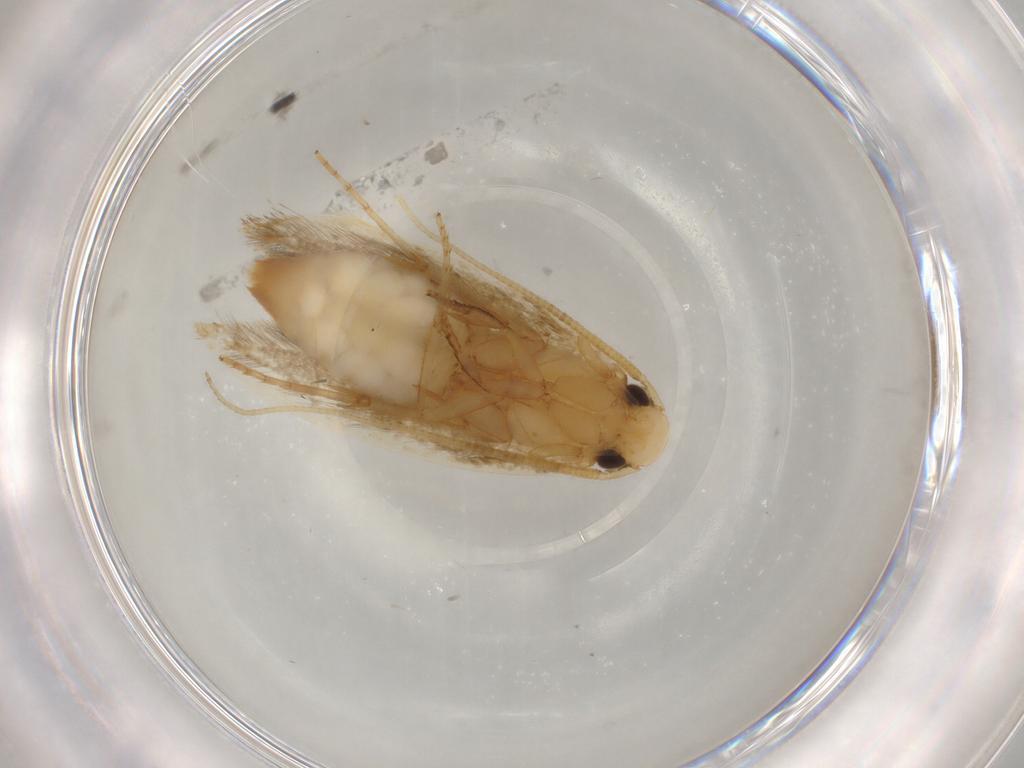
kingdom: Animalia
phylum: Arthropoda
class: Insecta
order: Lepidoptera
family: Tineidae
